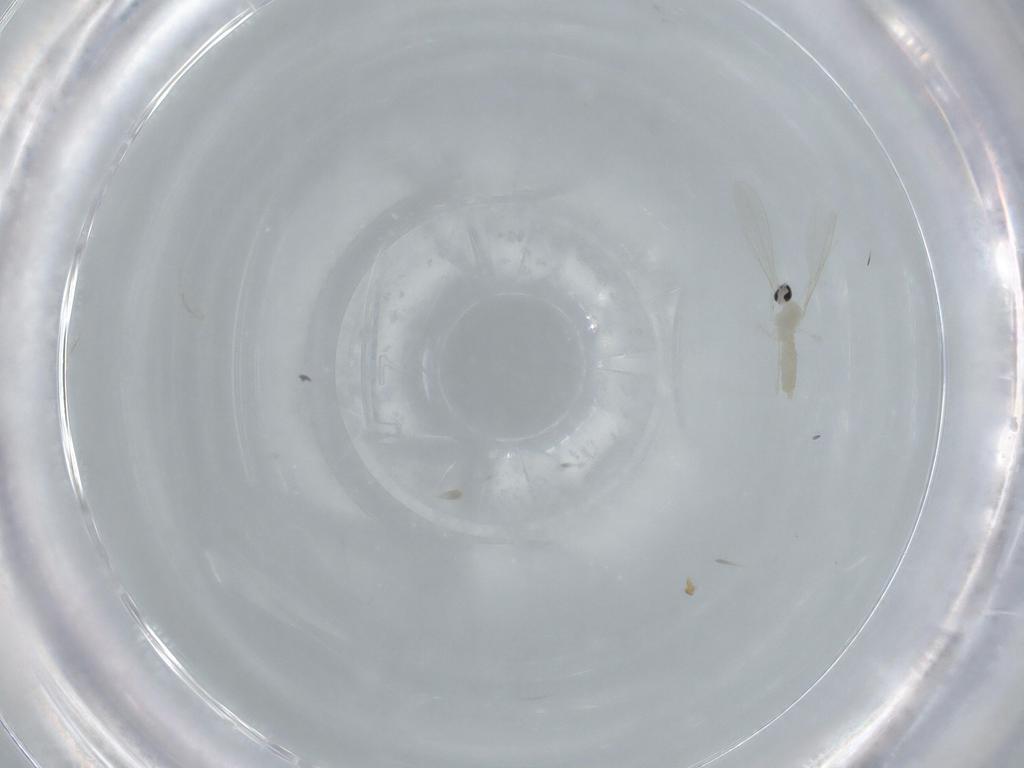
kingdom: Animalia
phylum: Arthropoda
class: Insecta
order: Diptera
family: Cecidomyiidae
